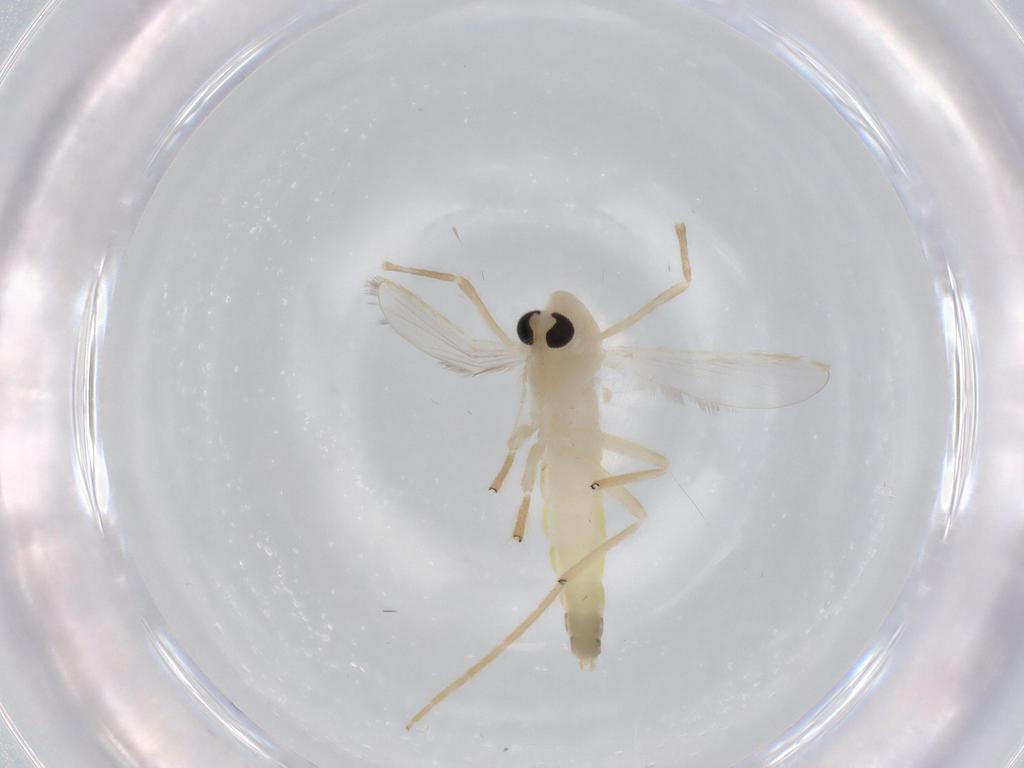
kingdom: Animalia
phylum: Arthropoda
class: Insecta
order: Diptera
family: Chironomidae
